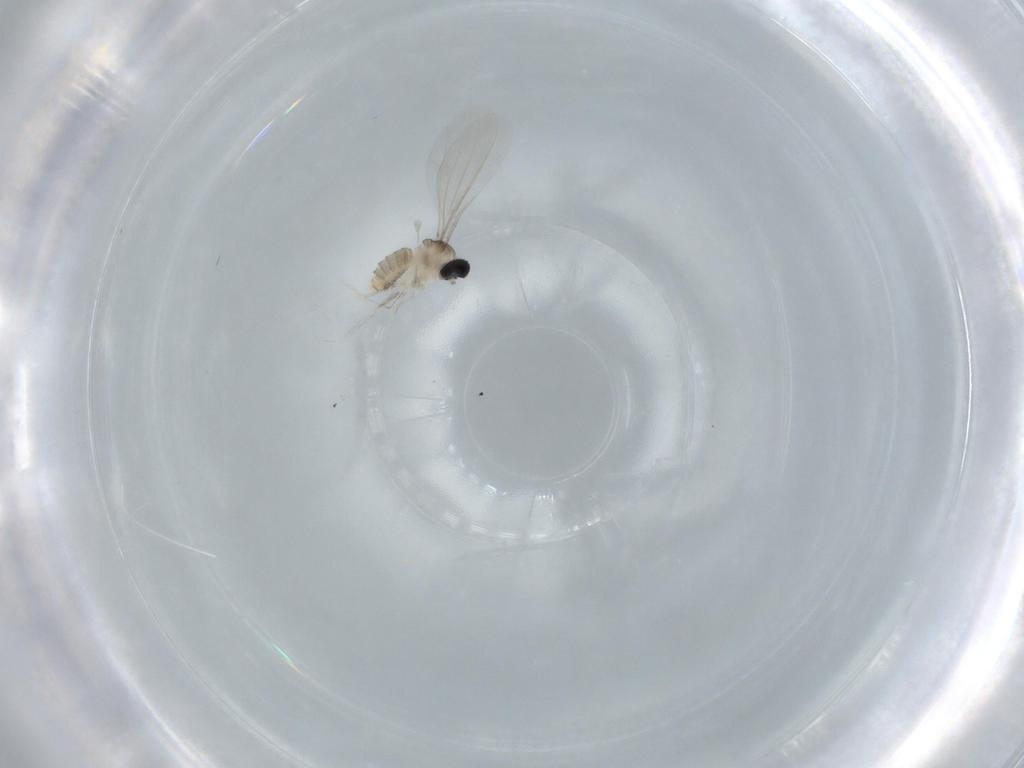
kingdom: Animalia
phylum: Arthropoda
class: Insecta
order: Diptera
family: Cecidomyiidae
